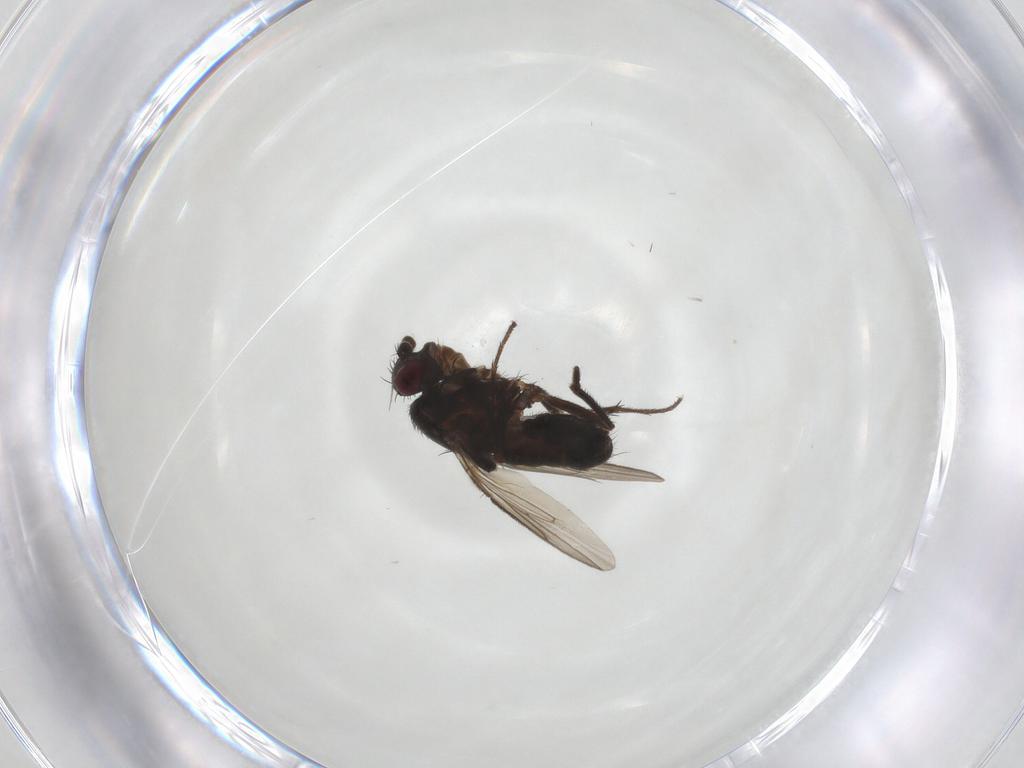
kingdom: Animalia
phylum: Arthropoda
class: Insecta
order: Diptera
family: Sphaeroceridae
